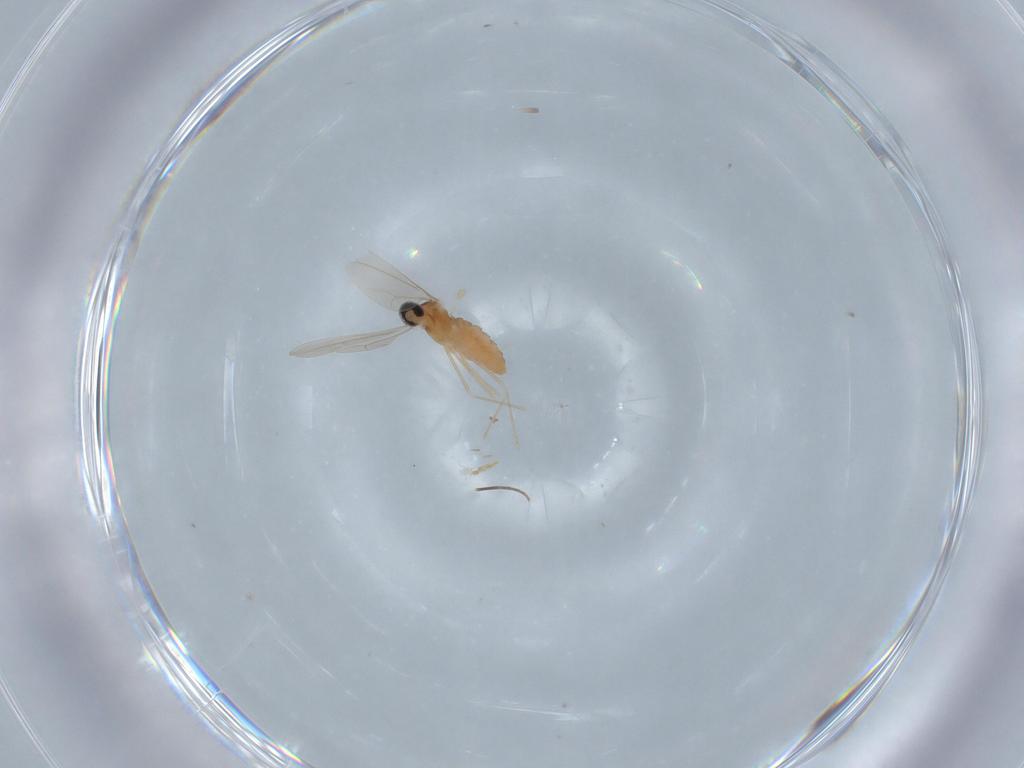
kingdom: Animalia
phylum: Arthropoda
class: Insecta
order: Diptera
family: Cecidomyiidae
